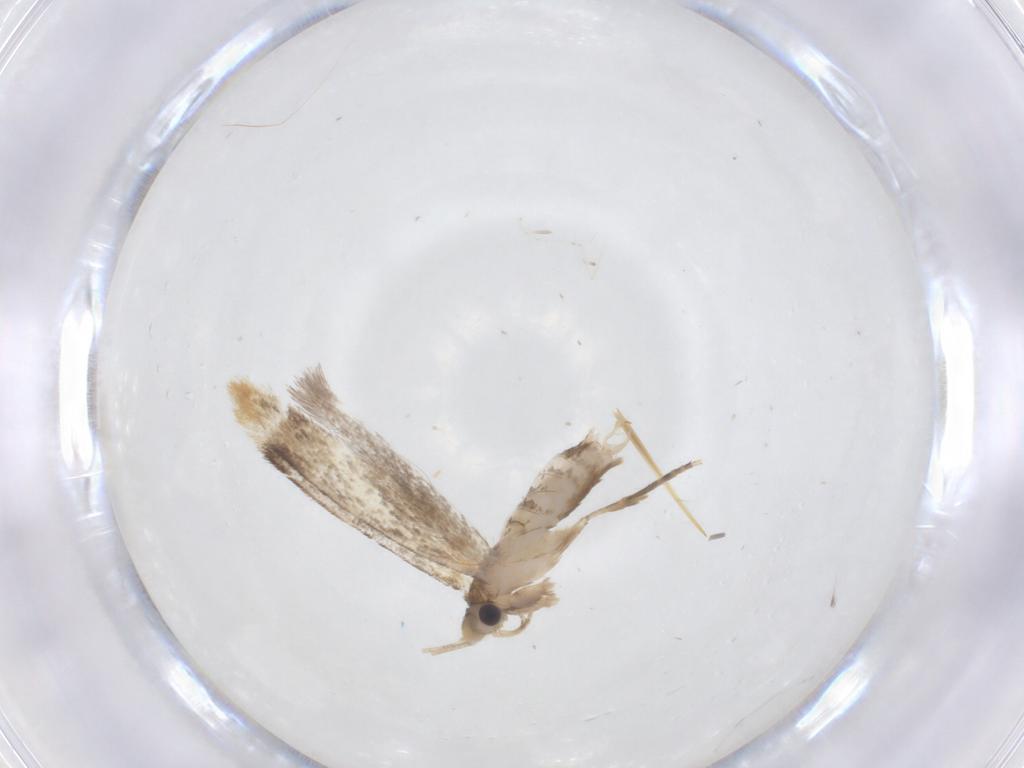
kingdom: Animalia
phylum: Arthropoda
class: Insecta
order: Lepidoptera
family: Dryadaulidae
